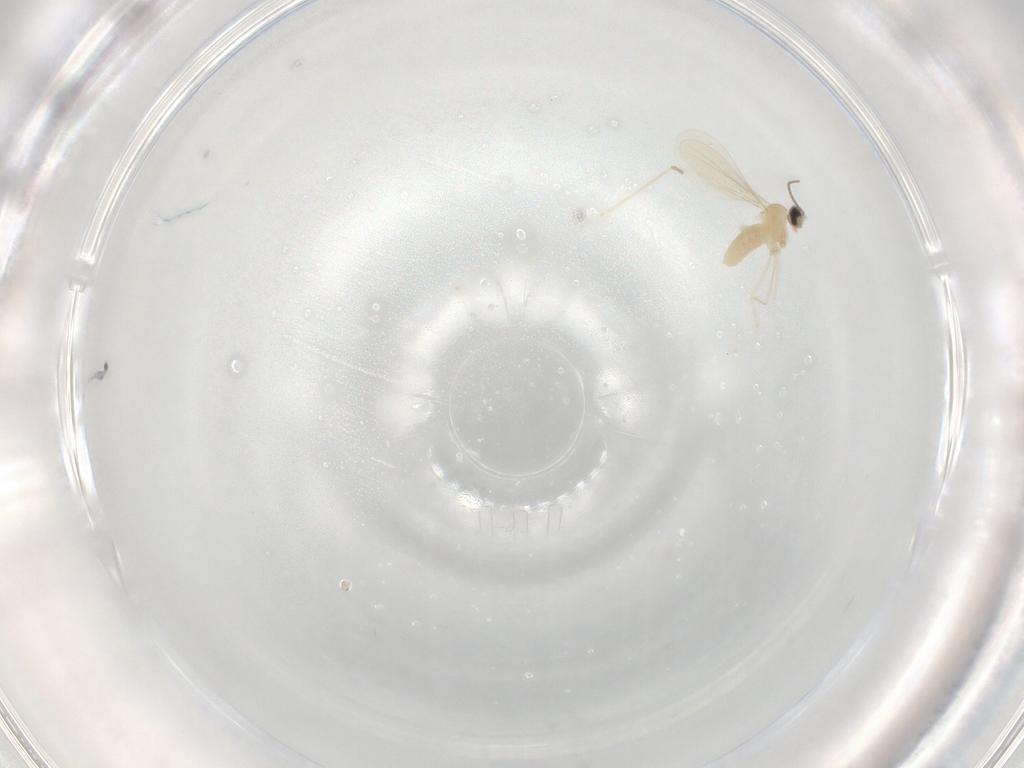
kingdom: Animalia
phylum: Arthropoda
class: Insecta
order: Diptera
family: Cecidomyiidae
